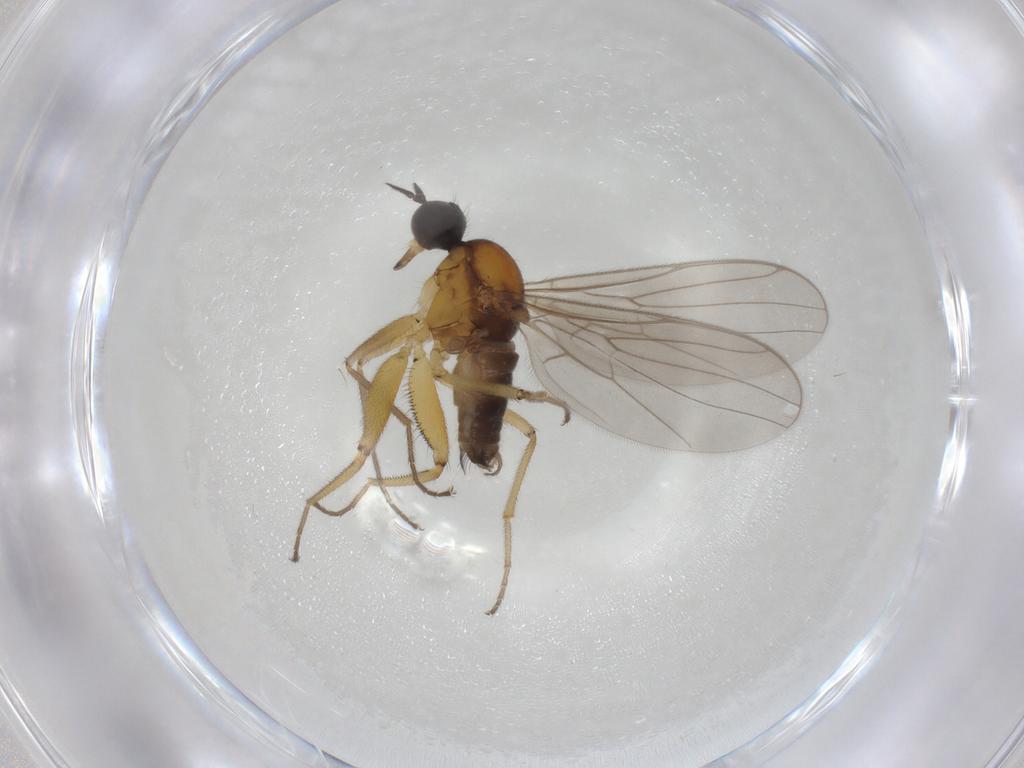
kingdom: Animalia
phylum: Arthropoda
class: Insecta
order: Diptera
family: Hybotidae
